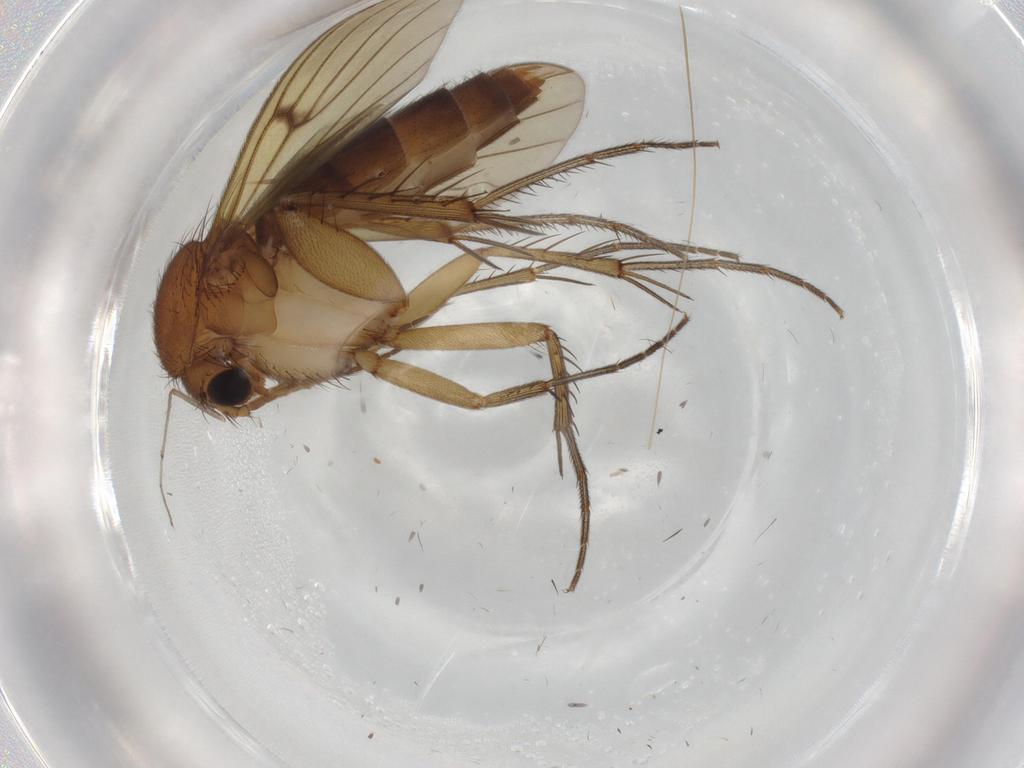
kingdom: Animalia
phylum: Arthropoda
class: Insecta
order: Diptera
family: Chironomidae
